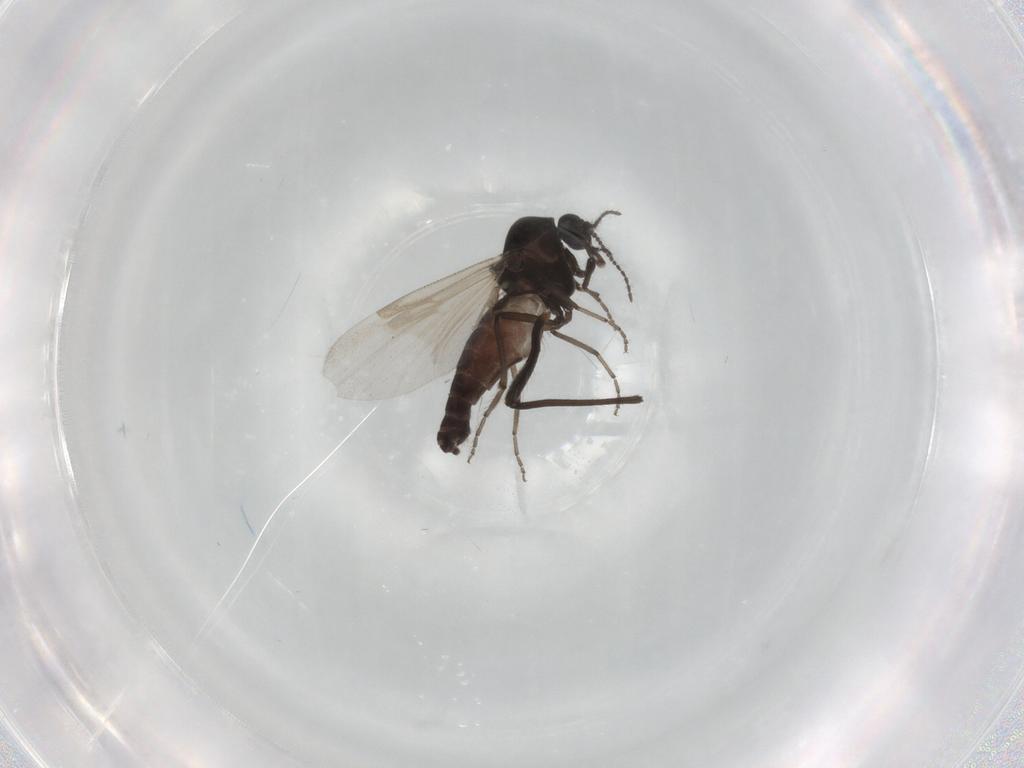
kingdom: Animalia
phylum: Arthropoda
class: Insecta
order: Diptera
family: Ceratopogonidae
